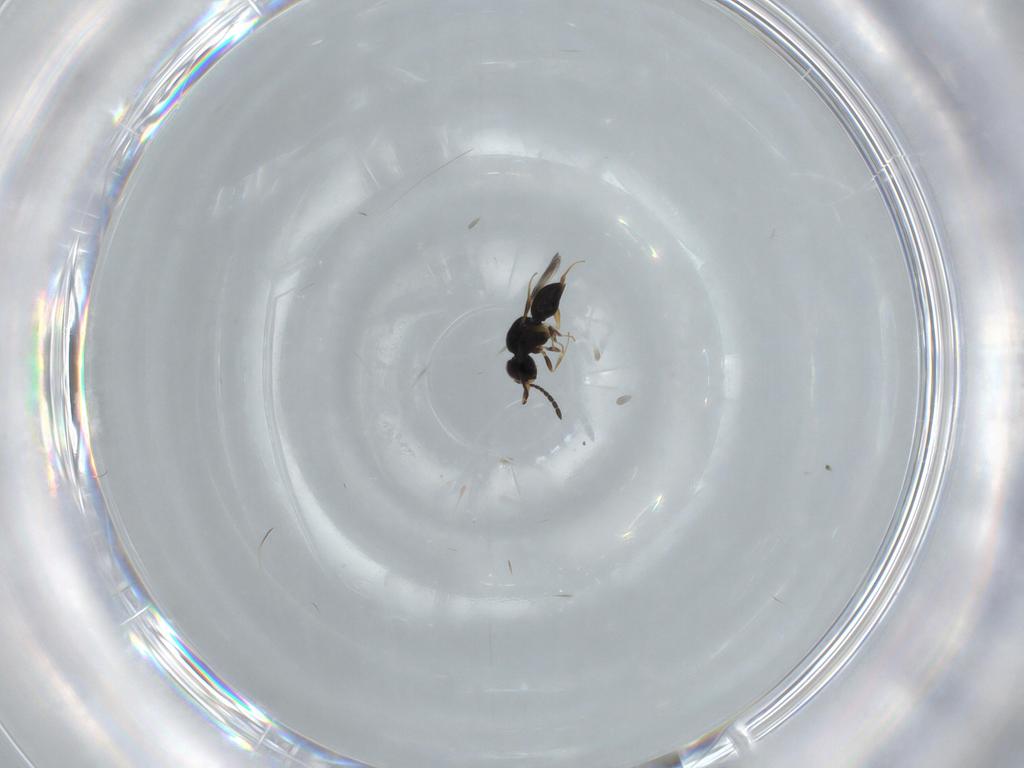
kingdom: Animalia
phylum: Arthropoda
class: Insecta
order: Hymenoptera
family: Ceraphronidae
